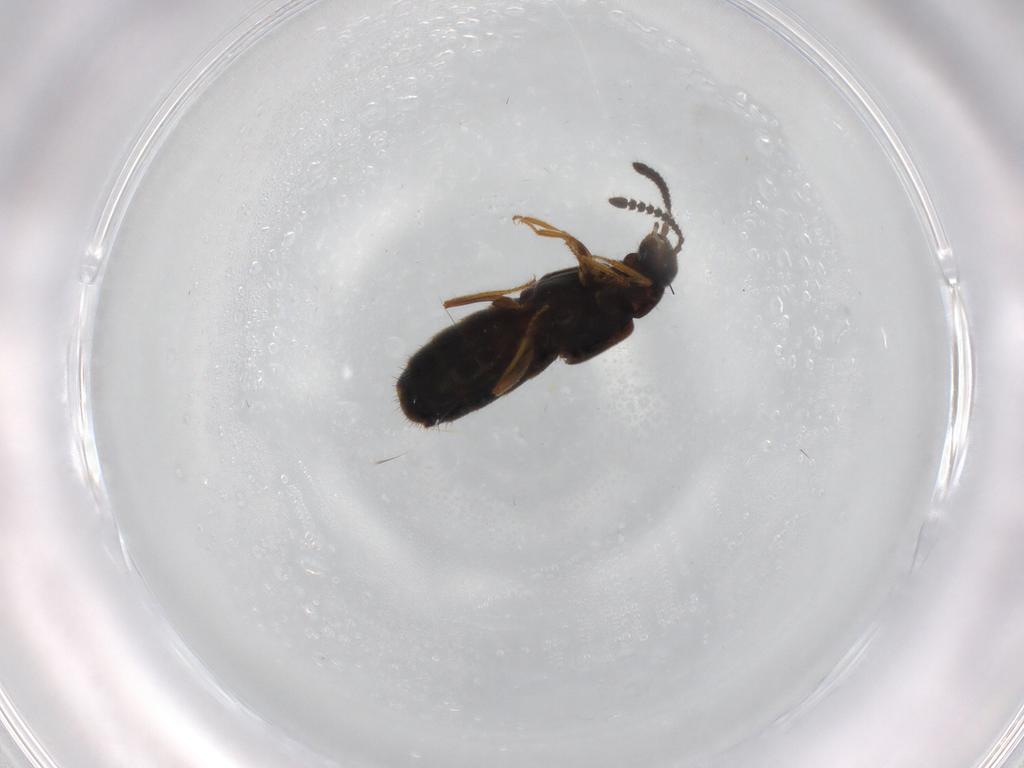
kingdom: Animalia
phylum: Arthropoda
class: Insecta
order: Coleoptera
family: Staphylinidae
